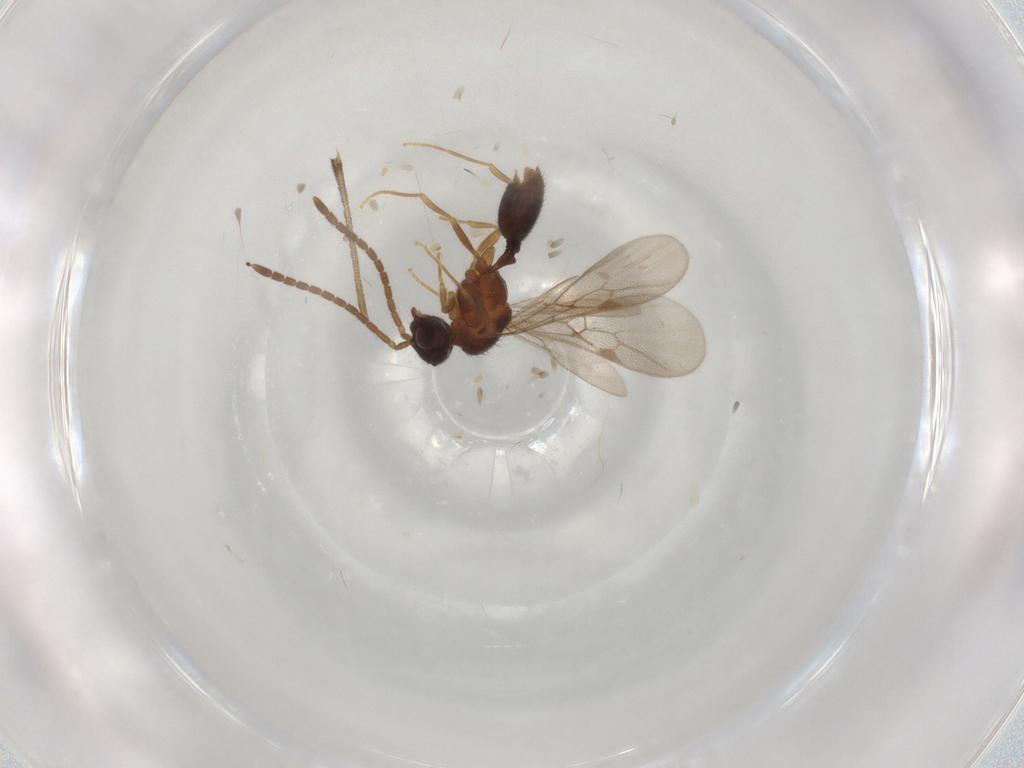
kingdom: Animalia
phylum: Arthropoda
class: Insecta
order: Hymenoptera
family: Formicidae
